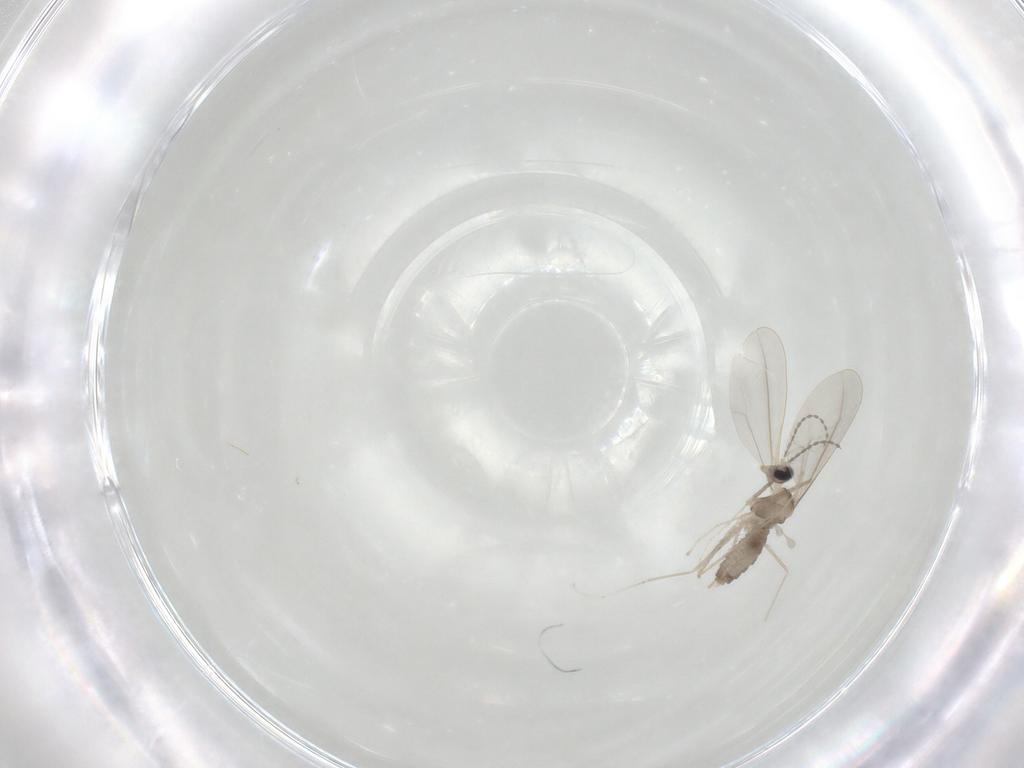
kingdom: Animalia
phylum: Arthropoda
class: Insecta
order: Diptera
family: Cecidomyiidae
